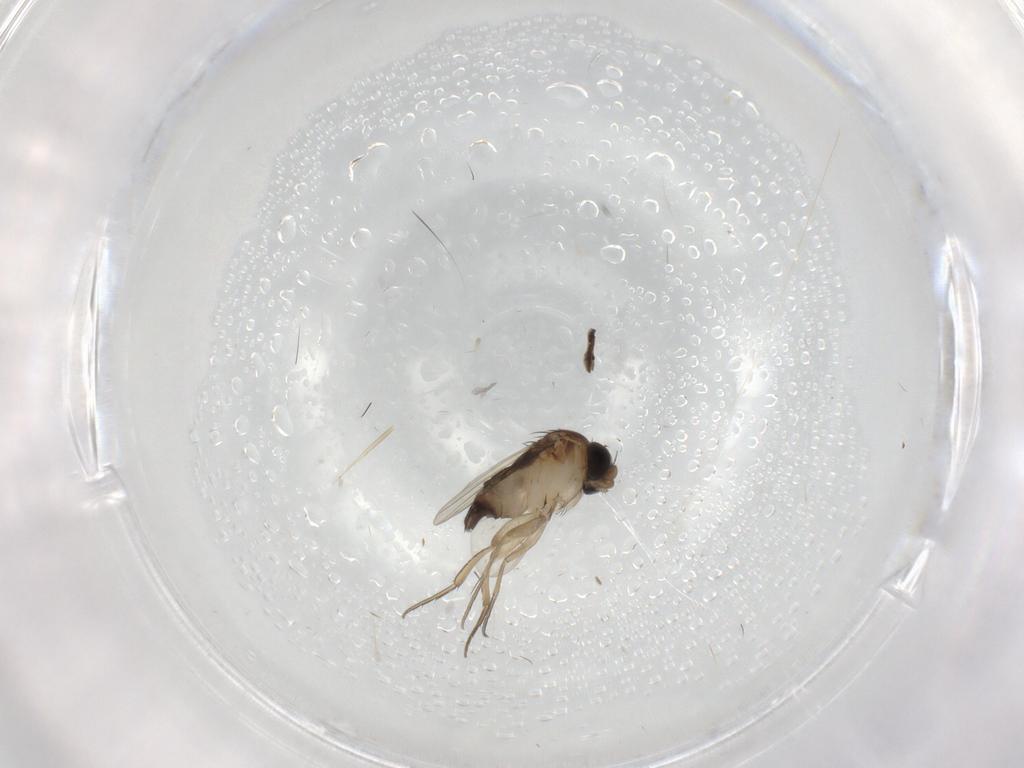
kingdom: Animalia
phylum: Arthropoda
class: Insecta
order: Diptera
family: Phoridae
